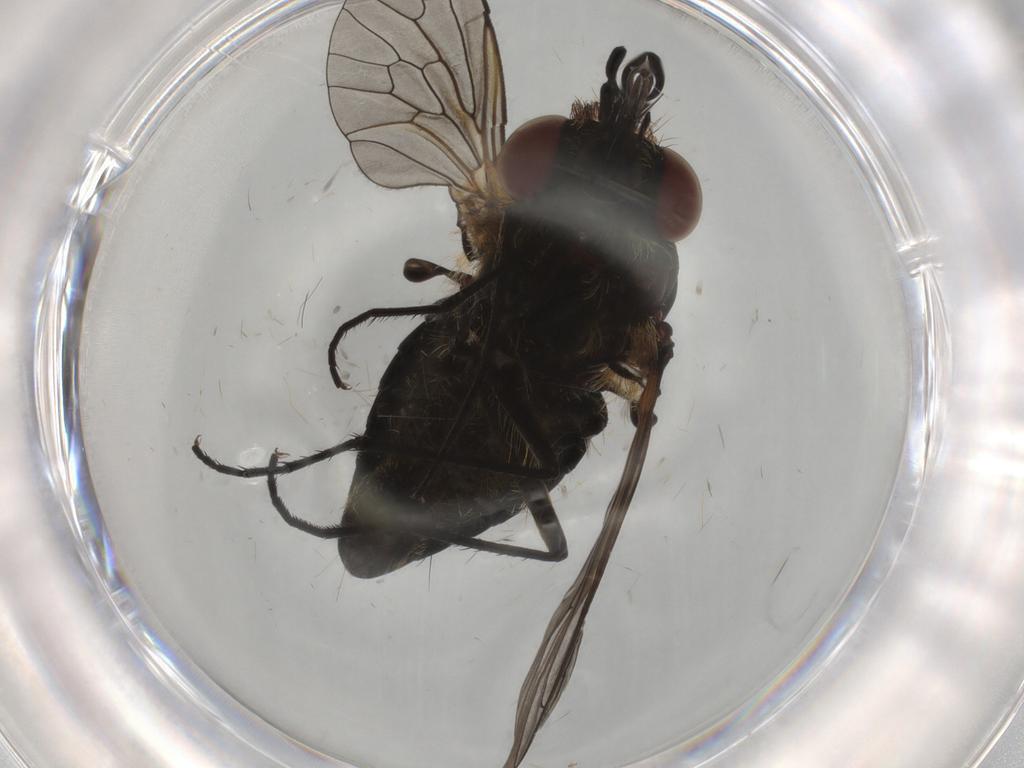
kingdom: Animalia
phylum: Arthropoda
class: Insecta
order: Diptera
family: Bombyliidae
